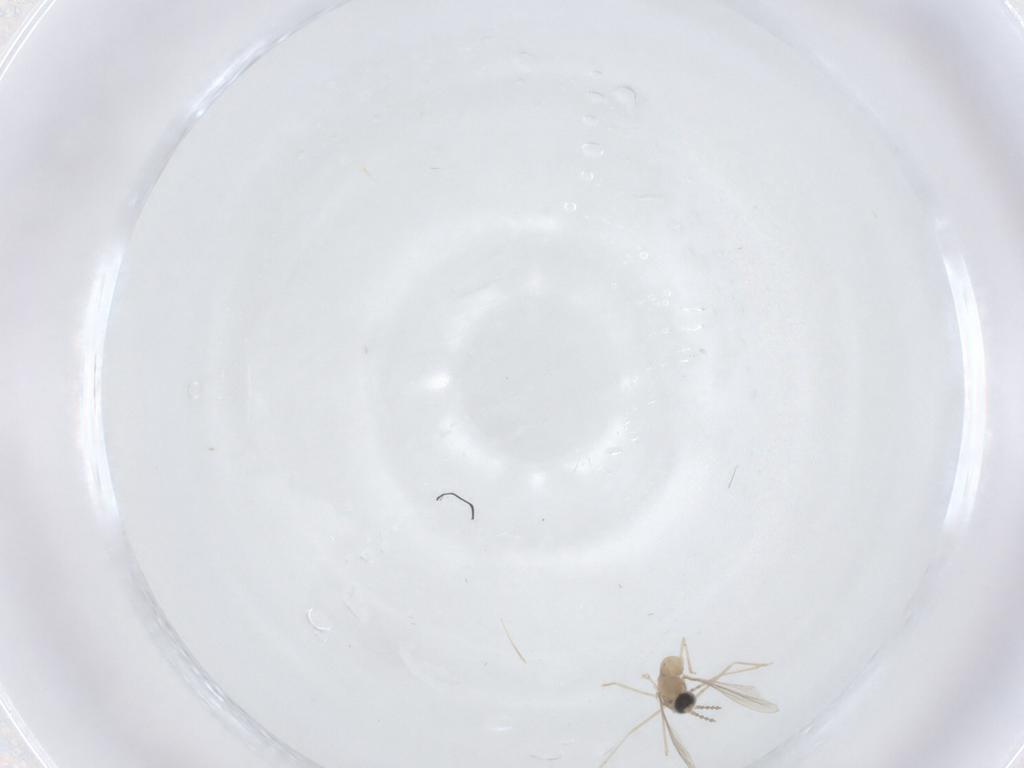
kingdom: Animalia
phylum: Arthropoda
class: Insecta
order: Diptera
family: Cecidomyiidae
